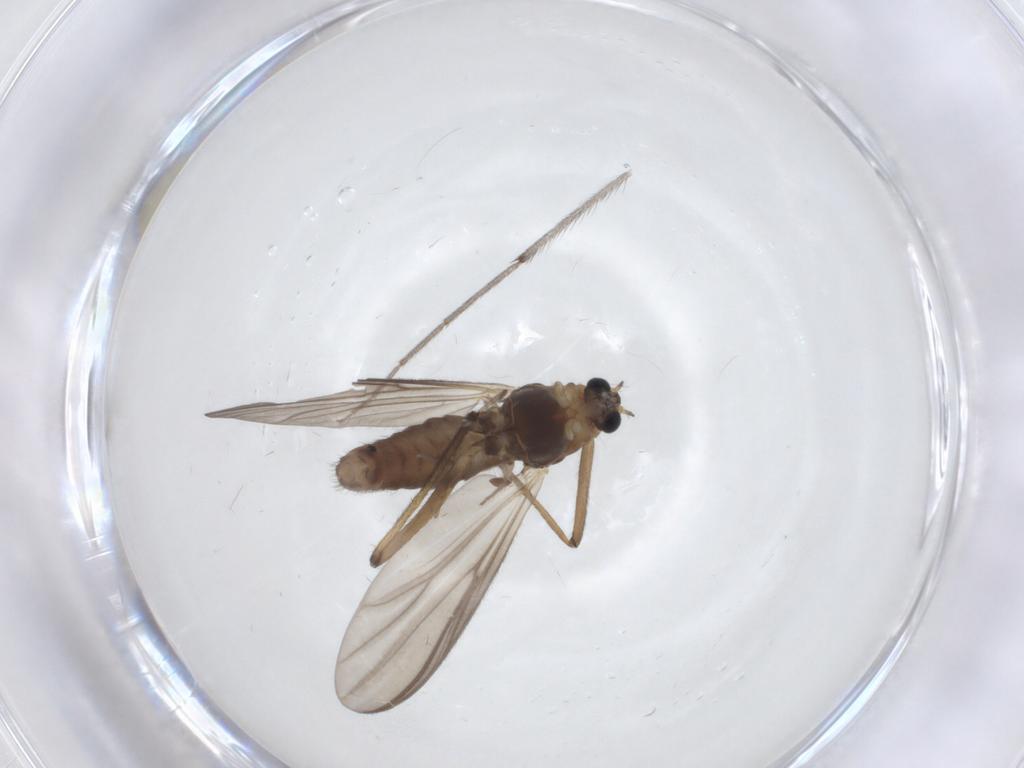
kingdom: Animalia
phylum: Arthropoda
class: Insecta
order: Diptera
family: Chironomidae
